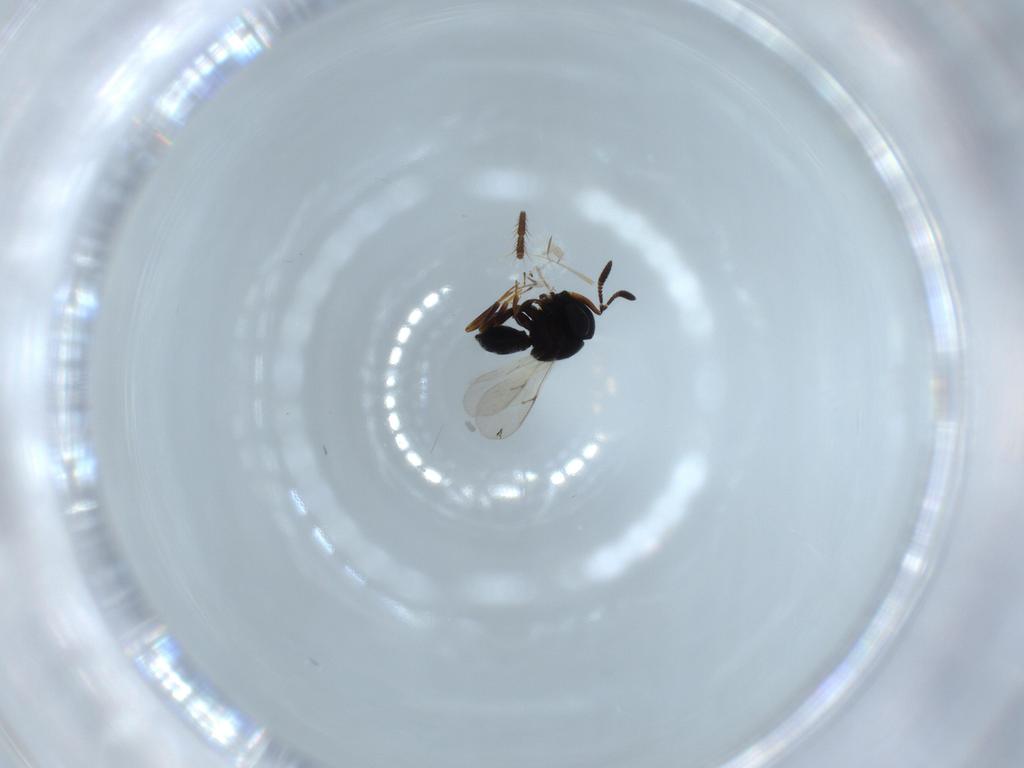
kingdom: Animalia
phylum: Arthropoda
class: Insecta
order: Hymenoptera
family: Scelionidae
